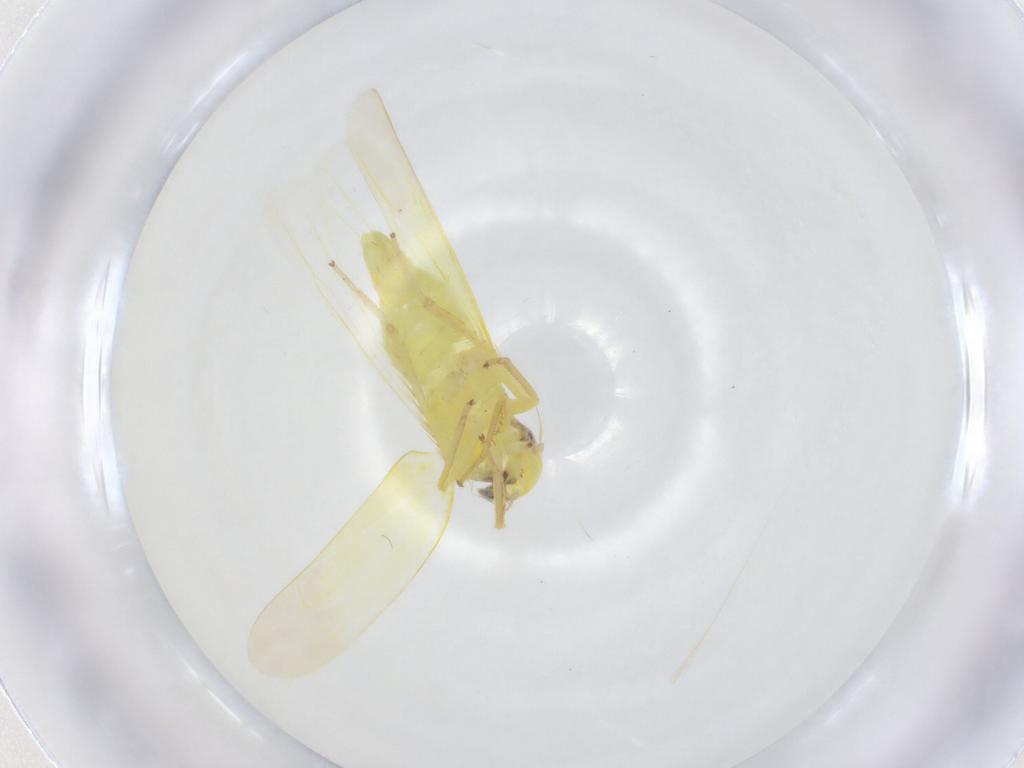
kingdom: Animalia
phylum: Arthropoda
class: Insecta
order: Hemiptera
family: Cicadellidae
